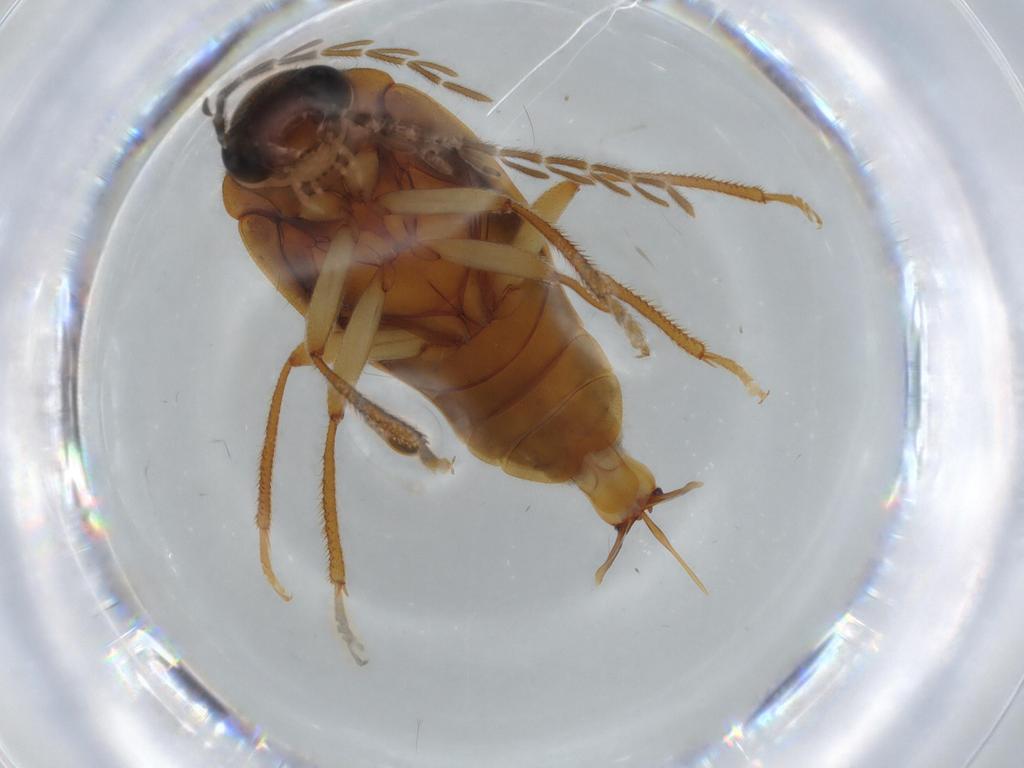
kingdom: Animalia
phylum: Arthropoda
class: Insecta
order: Coleoptera
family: Ptilodactylidae
